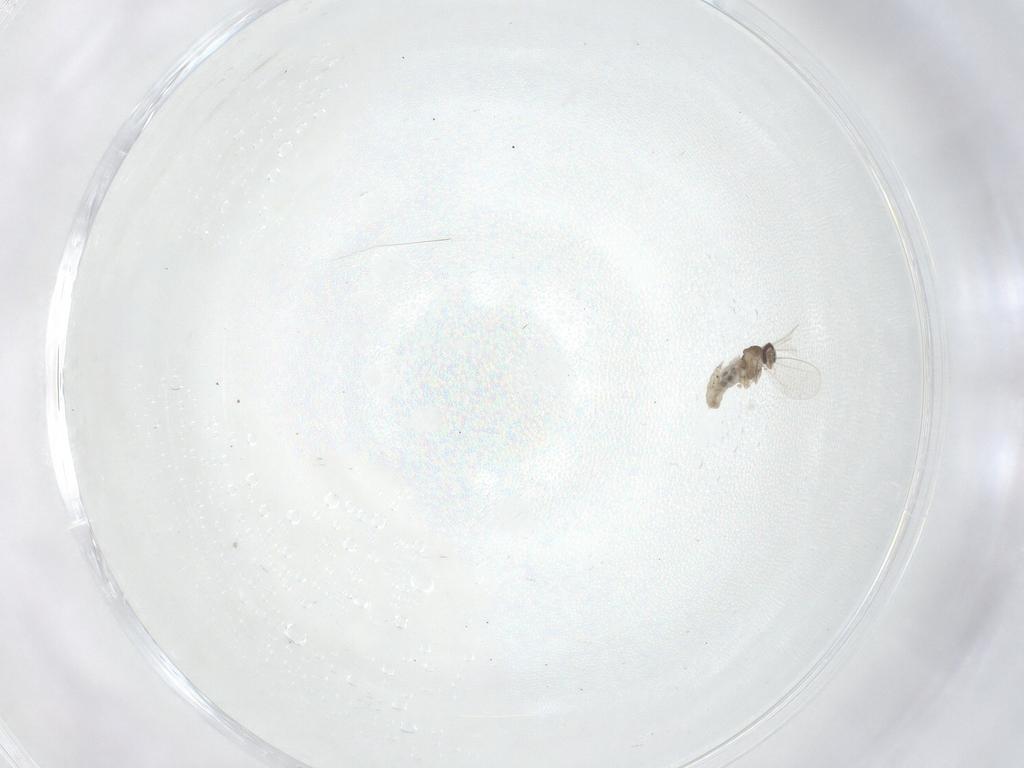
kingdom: Animalia
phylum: Arthropoda
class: Insecta
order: Diptera
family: Cecidomyiidae
